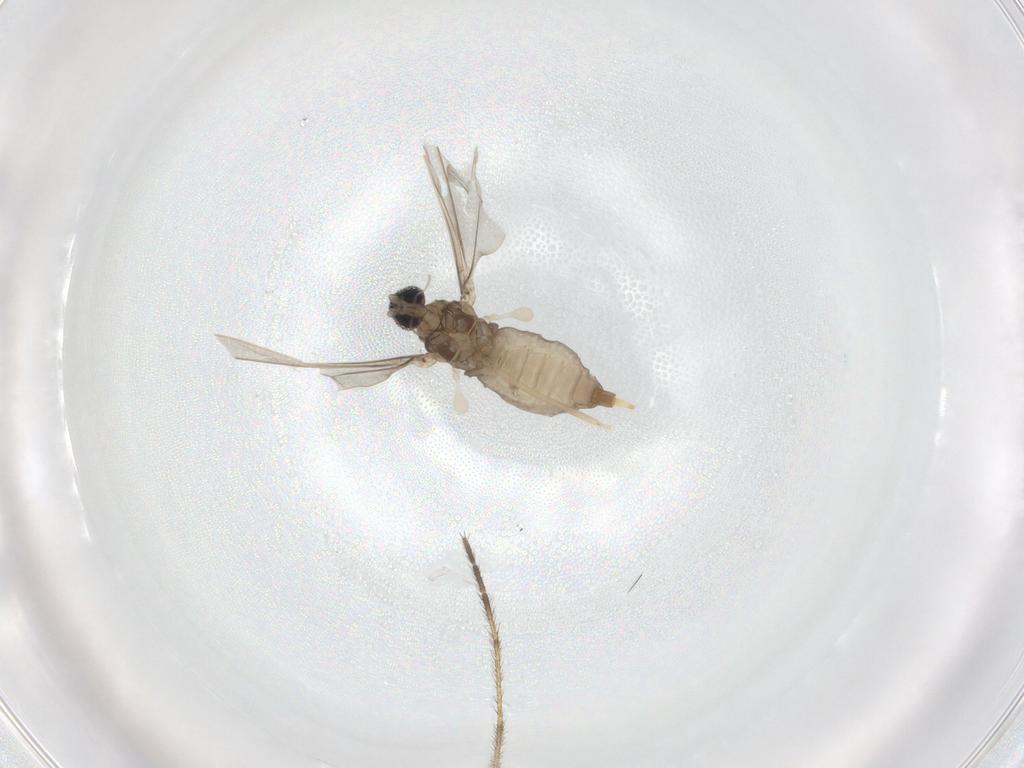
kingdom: Animalia
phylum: Arthropoda
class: Insecta
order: Diptera
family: Cecidomyiidae
